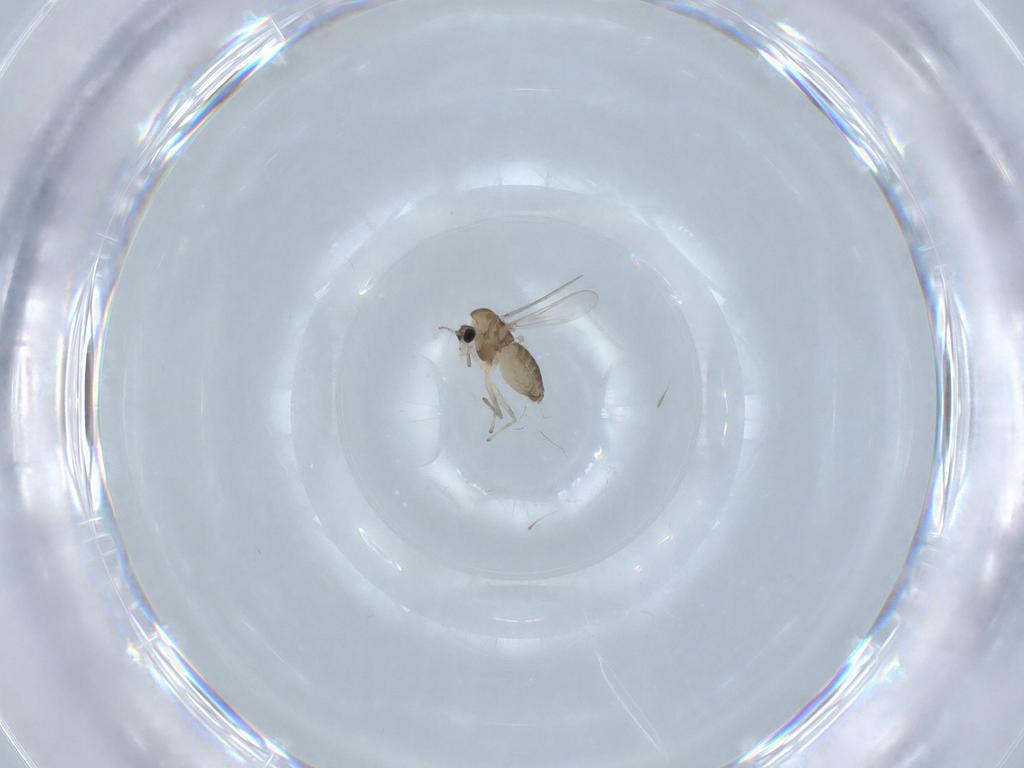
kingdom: Animalia
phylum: Arthropoda
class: Insecta
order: Diptera
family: Chironomidae
